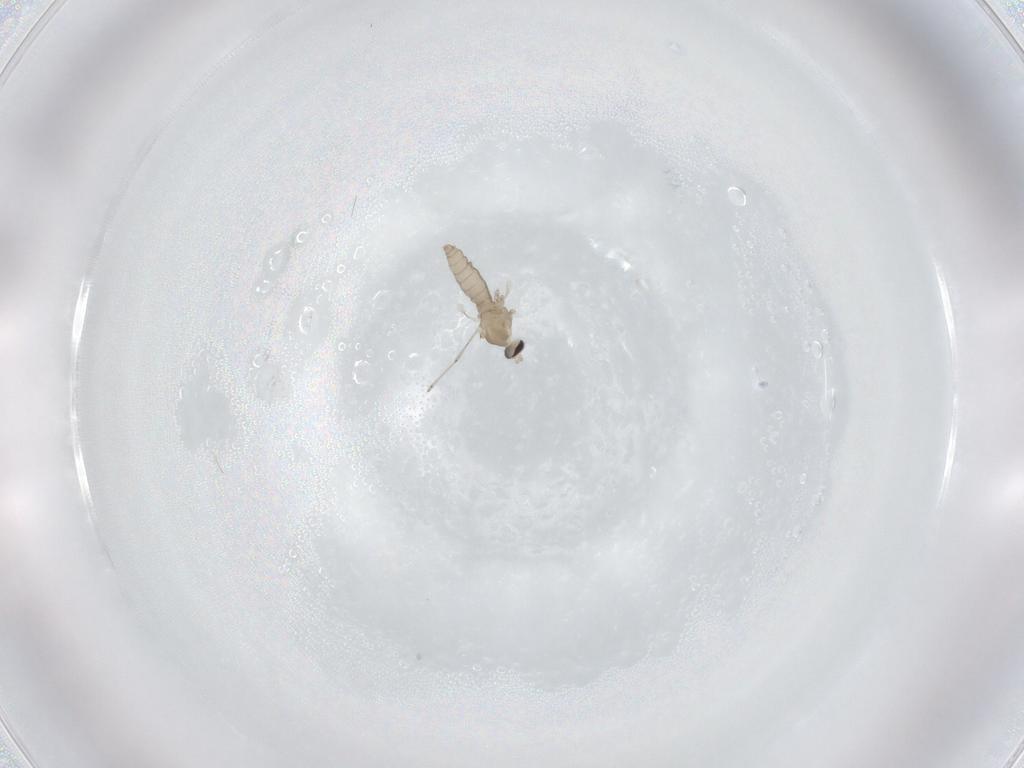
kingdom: Animalia
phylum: Arthropoda
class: Insecta
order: Diptera
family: Cecidomyiidae
